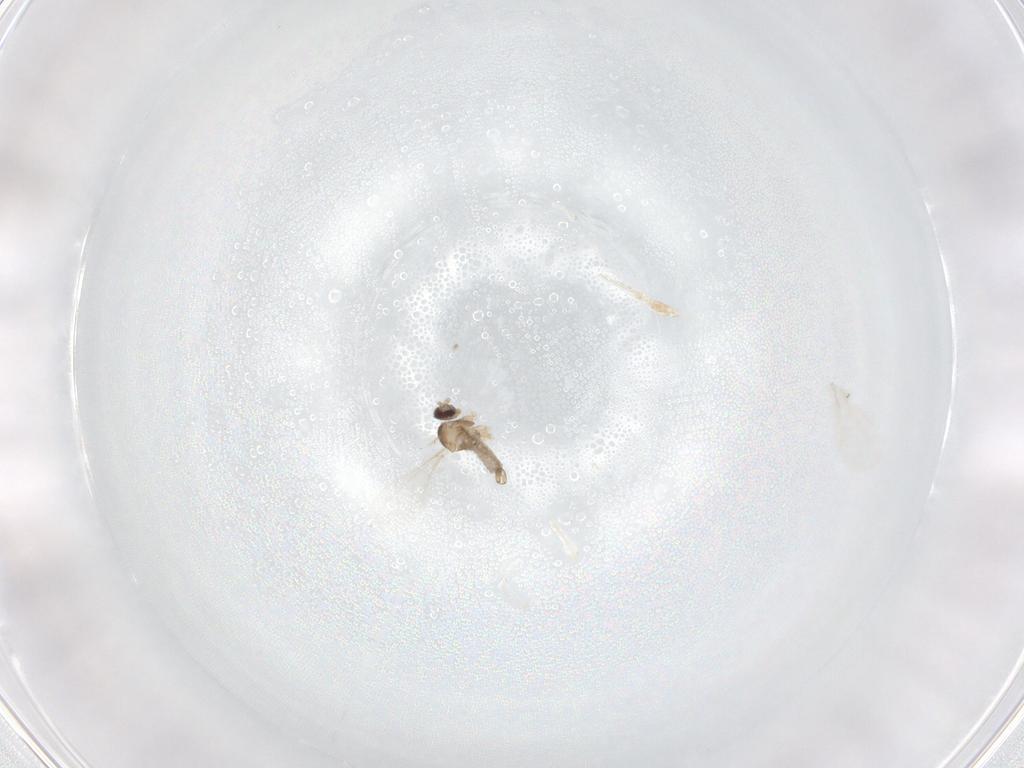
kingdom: Animalia
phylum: Arthropoda
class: Insecta
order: Diptera
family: Cecidomyiidae
